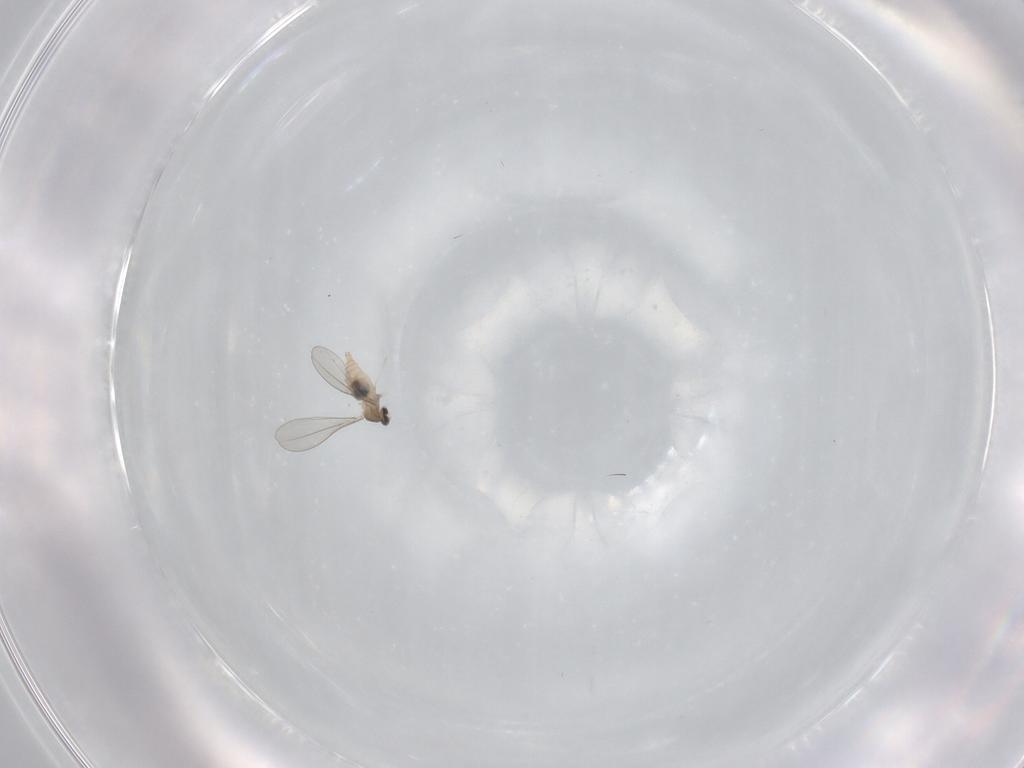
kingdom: Animalia
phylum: Arthropoda
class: Insecta
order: Diptera
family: Cecidomyiidae
